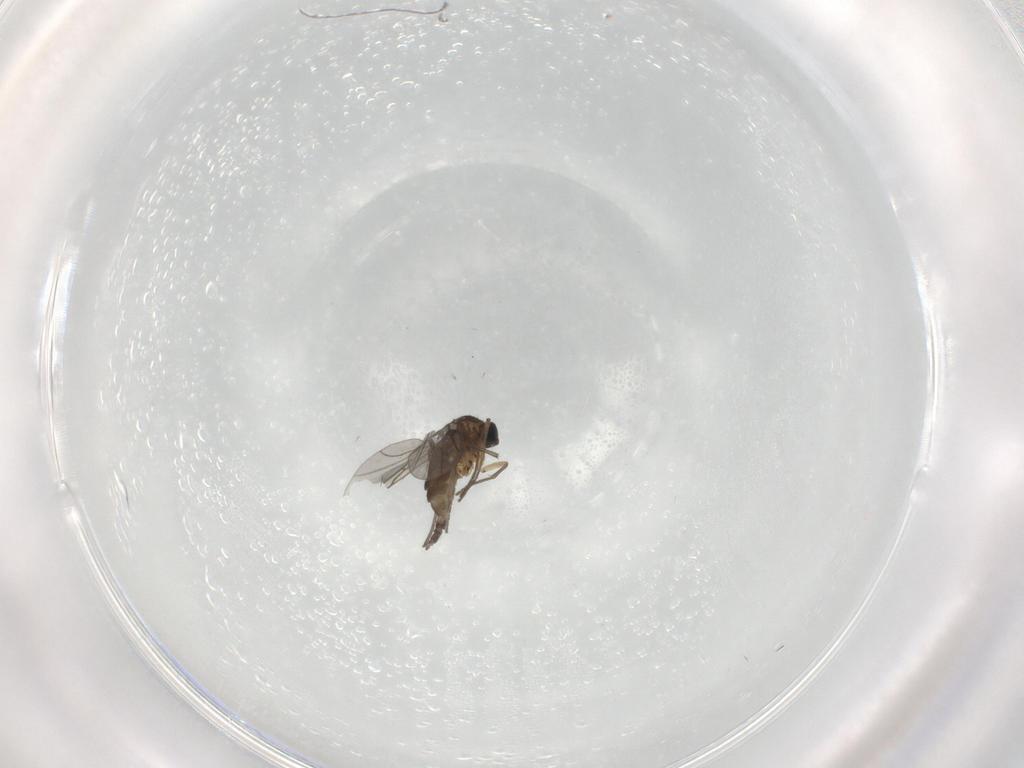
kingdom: Animalia
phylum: Arthropoda
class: Insecta
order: Diptera
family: Sciaridae
